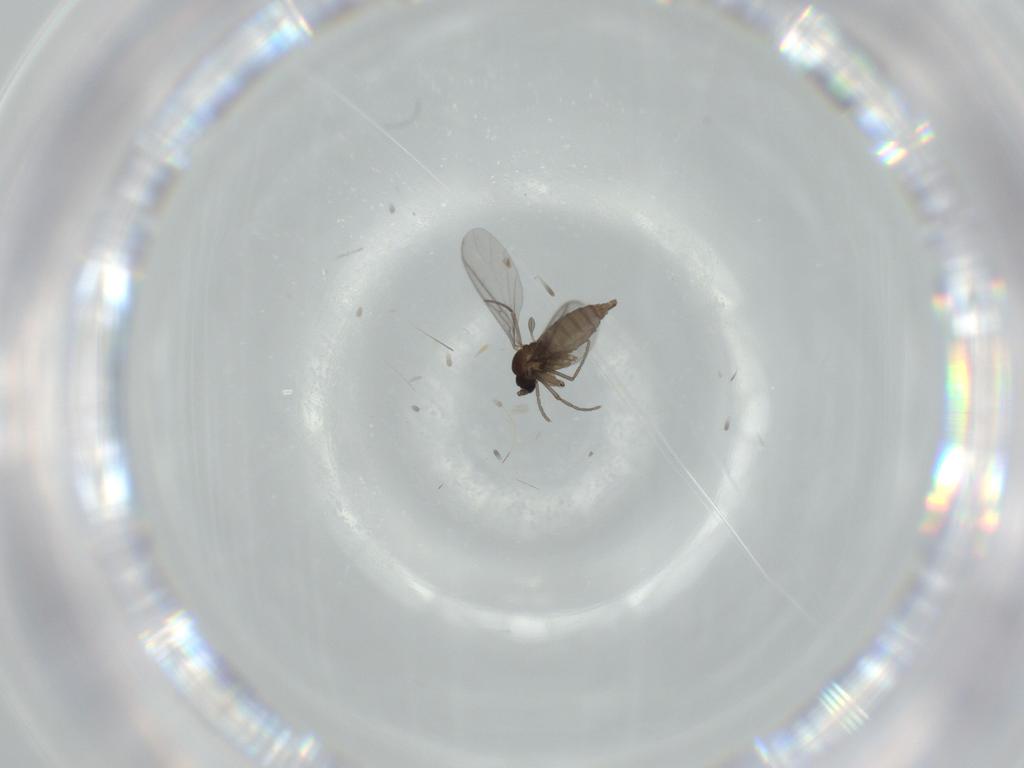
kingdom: Animalia
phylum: Arthropoda
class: Insecta
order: Diptera
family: Sciaridae
